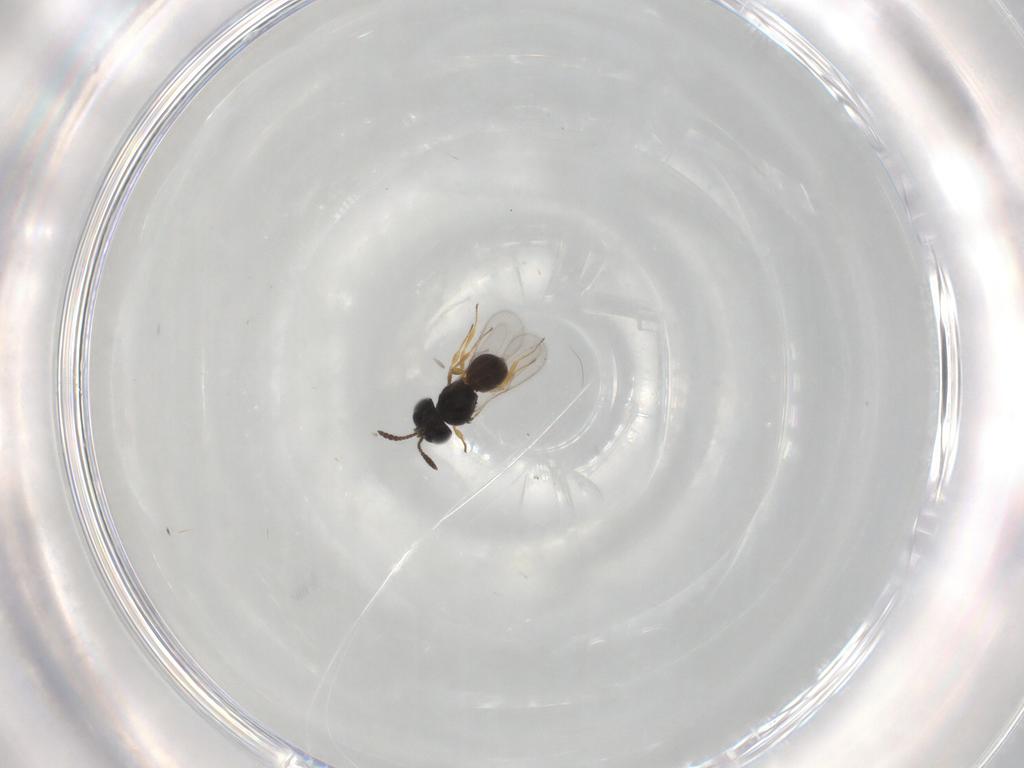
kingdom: Animalia
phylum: Arthropoda
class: Insecta
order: Hymenoptera
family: Scelionidae
